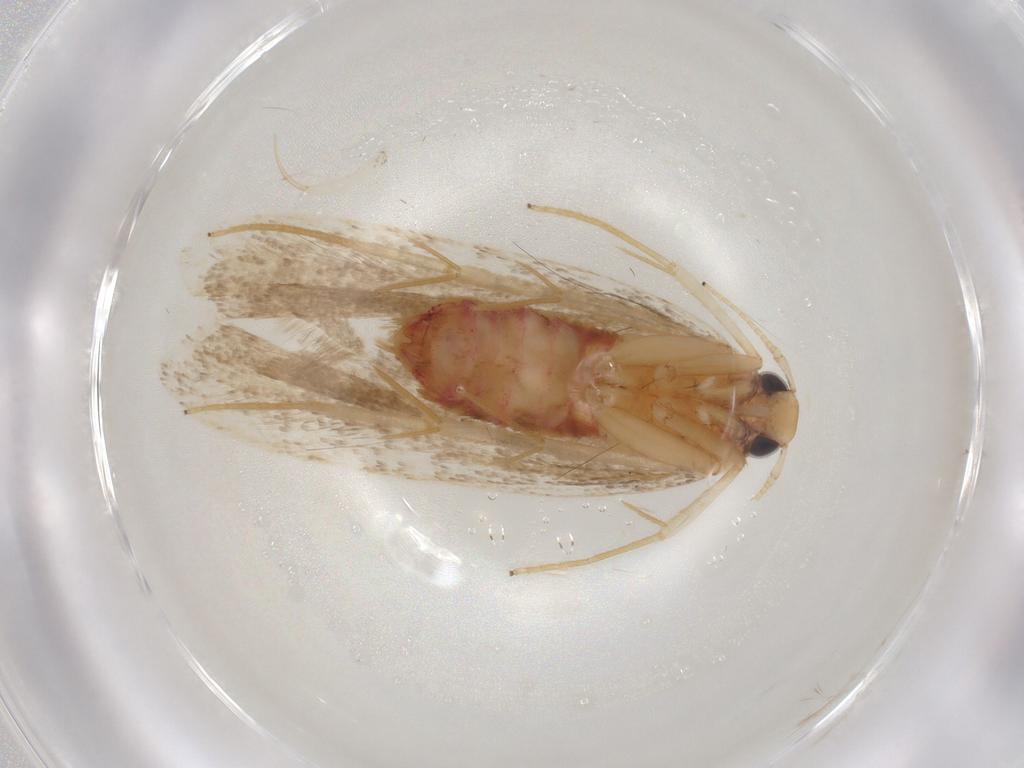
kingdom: Animalia
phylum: Arthropoda
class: Insecta
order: Lepidoptera
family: Lecithoceridae
